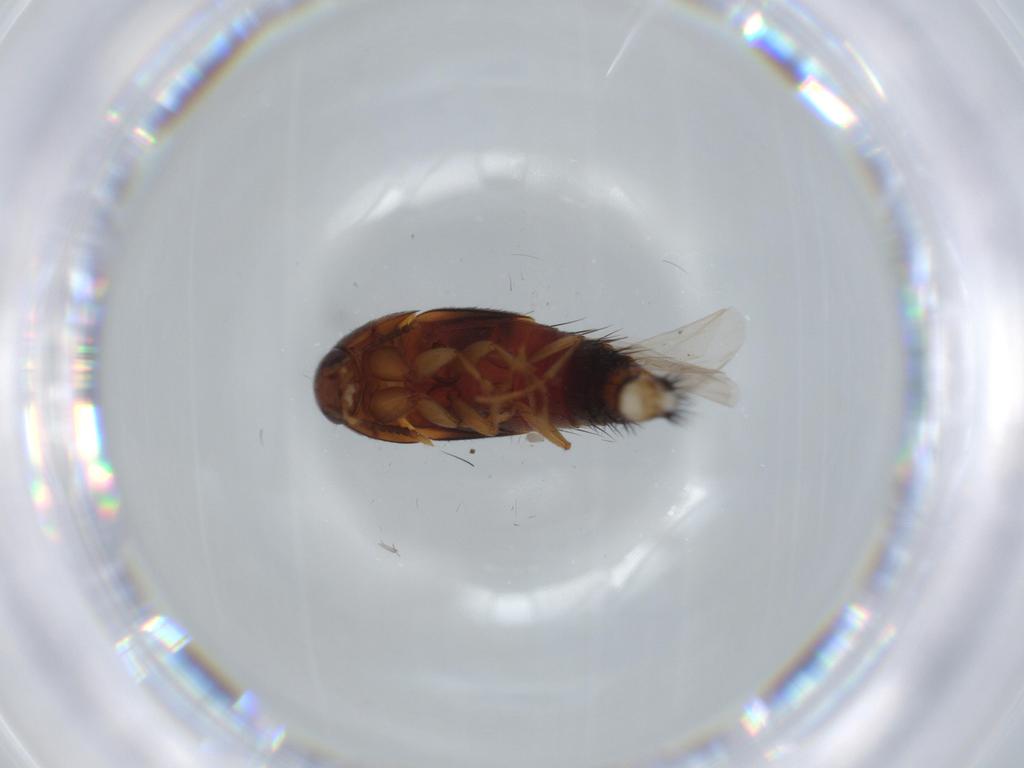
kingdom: Animalia
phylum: Arthropoda
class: Insecta
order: Coleoptera
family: Staphylinidae
